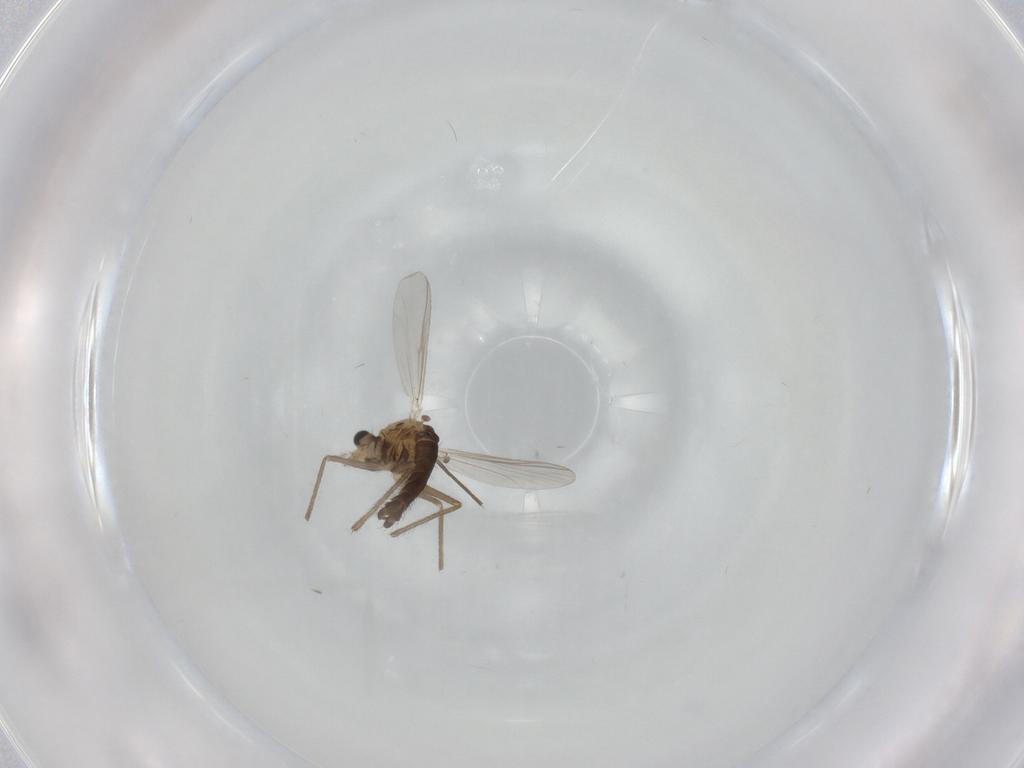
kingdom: Animalia
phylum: Arthropoda
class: Insecta
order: Diptera
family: Chironomidae
